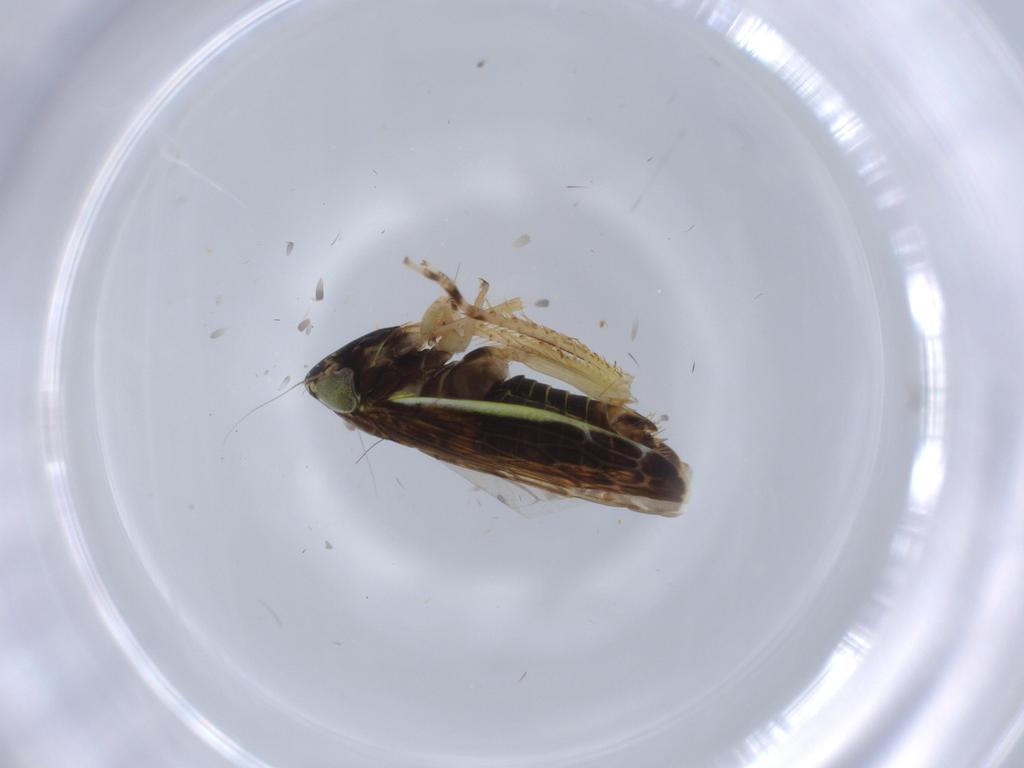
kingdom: Animalia
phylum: Arthropoda
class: Insecta
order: Hemiptera
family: Cicadellidae
